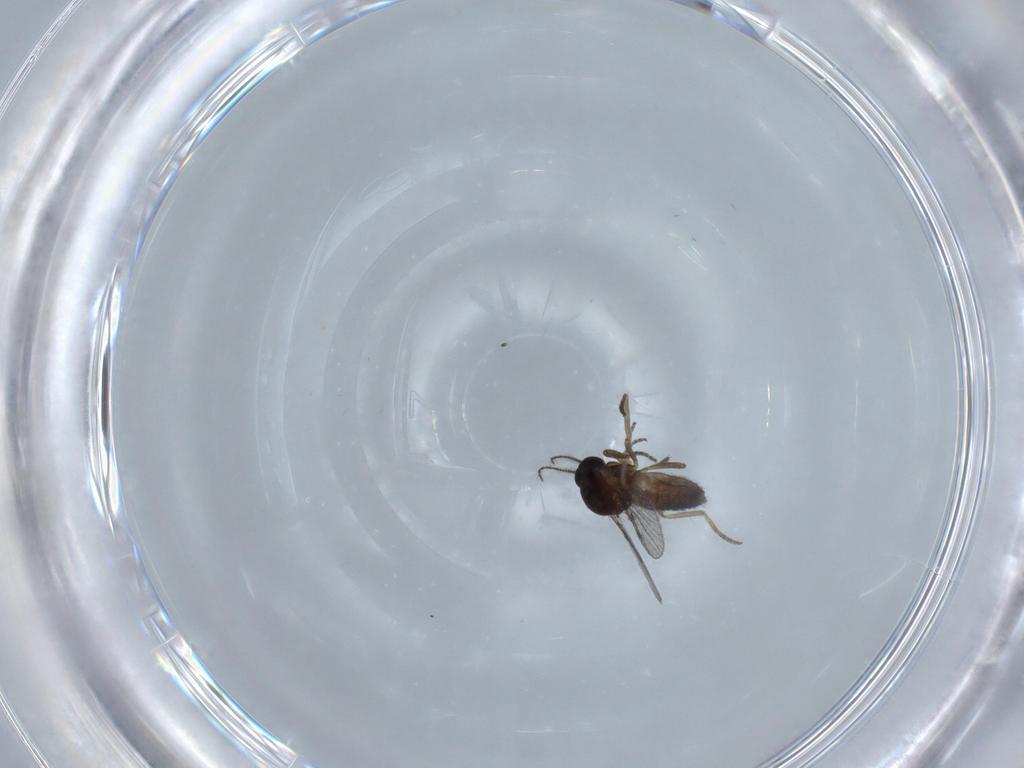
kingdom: Animalia
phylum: Arthropoda
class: Insecta
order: Diptera
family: Chironomidae
